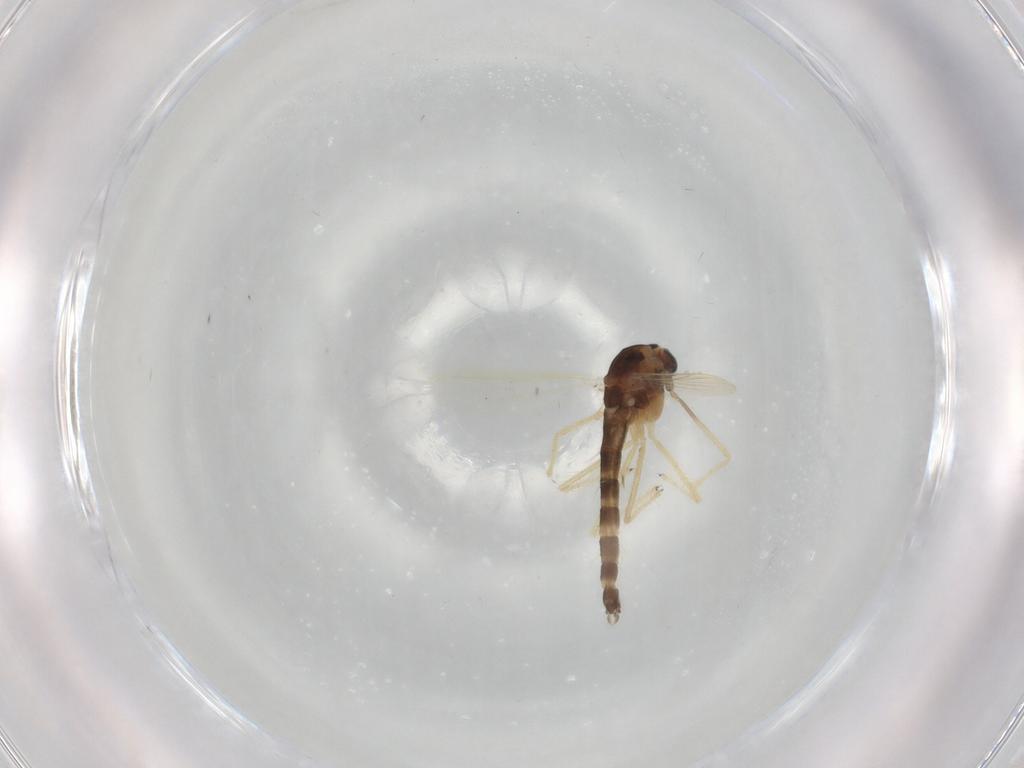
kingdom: Animalia
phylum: Arthropoda
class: Insecta
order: Diptera
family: Chironomidae
